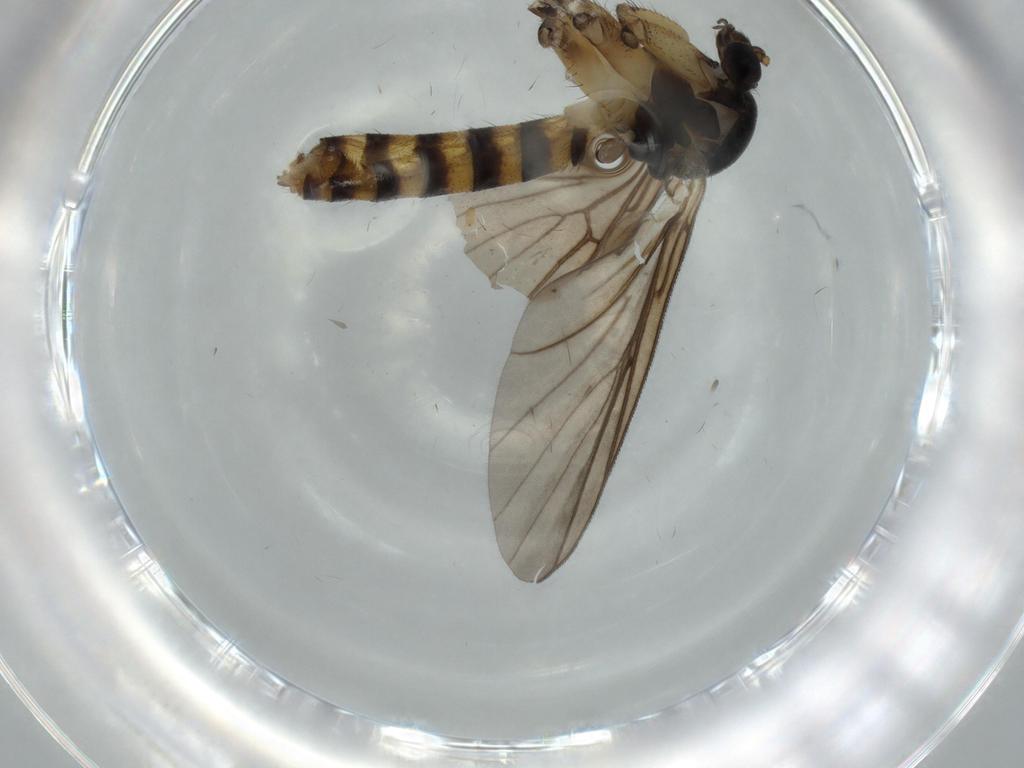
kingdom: Animalia
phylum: Arthropoda
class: Insecta
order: Diptera
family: Mycetophilidae
